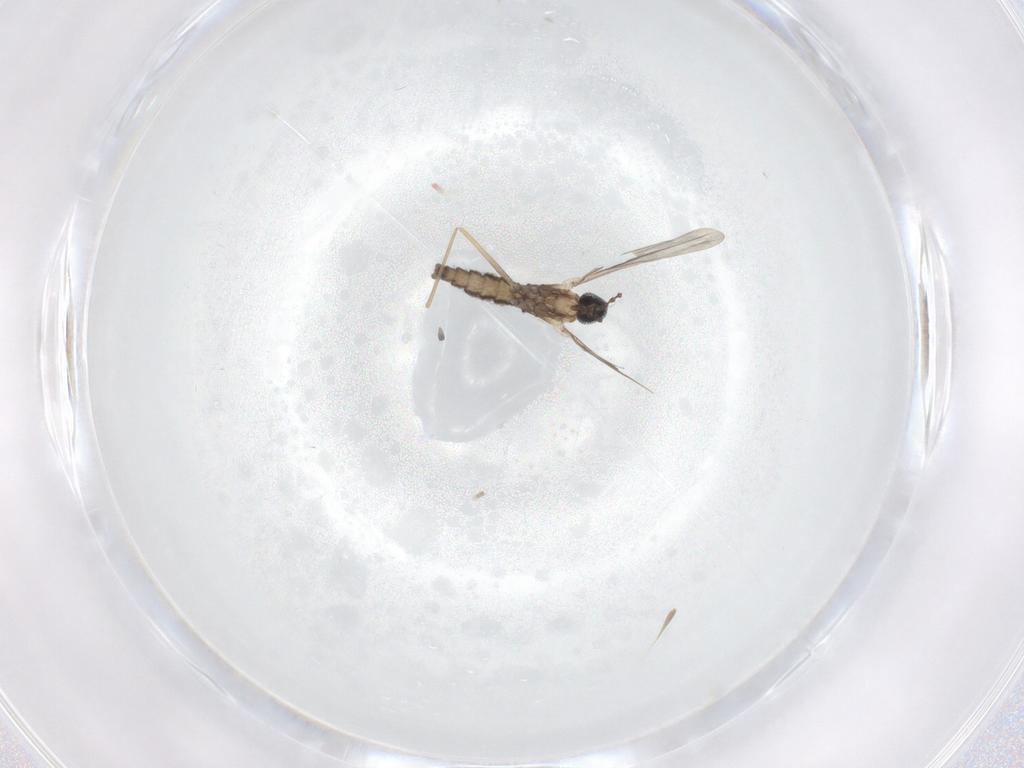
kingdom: Animalia
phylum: Arthropoda
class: Insecta
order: Diptera
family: Cecidomyiidae
